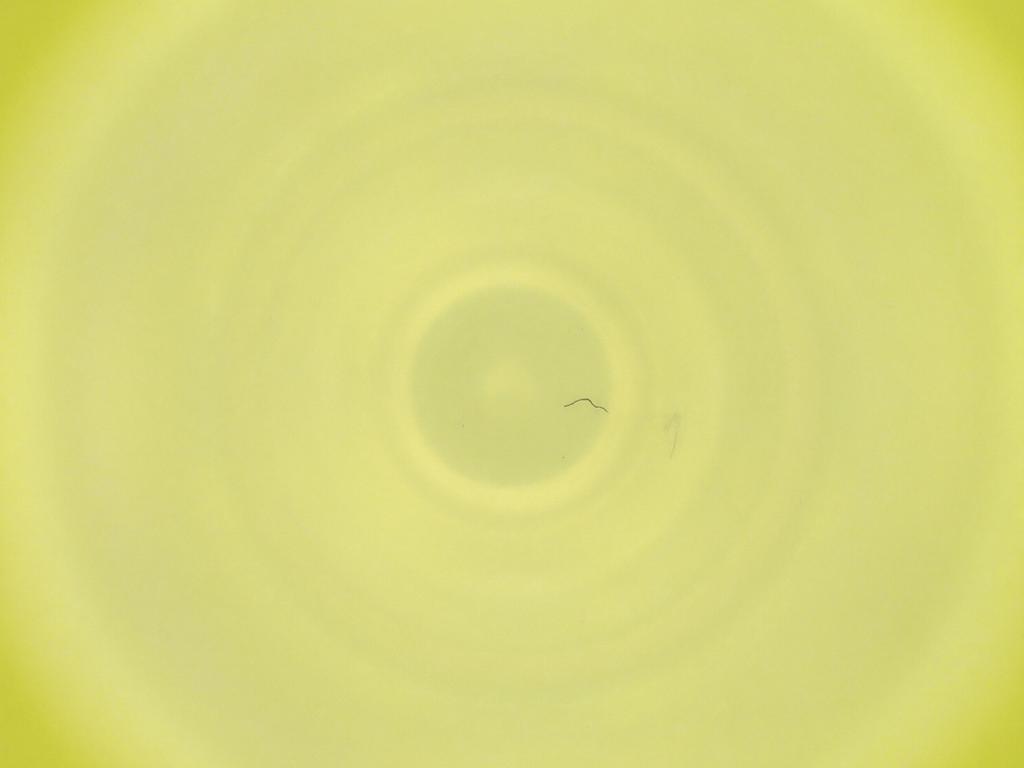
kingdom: Animalia
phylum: Arthropoda
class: Insecta
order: Diptera
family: Cecidomyiidae
